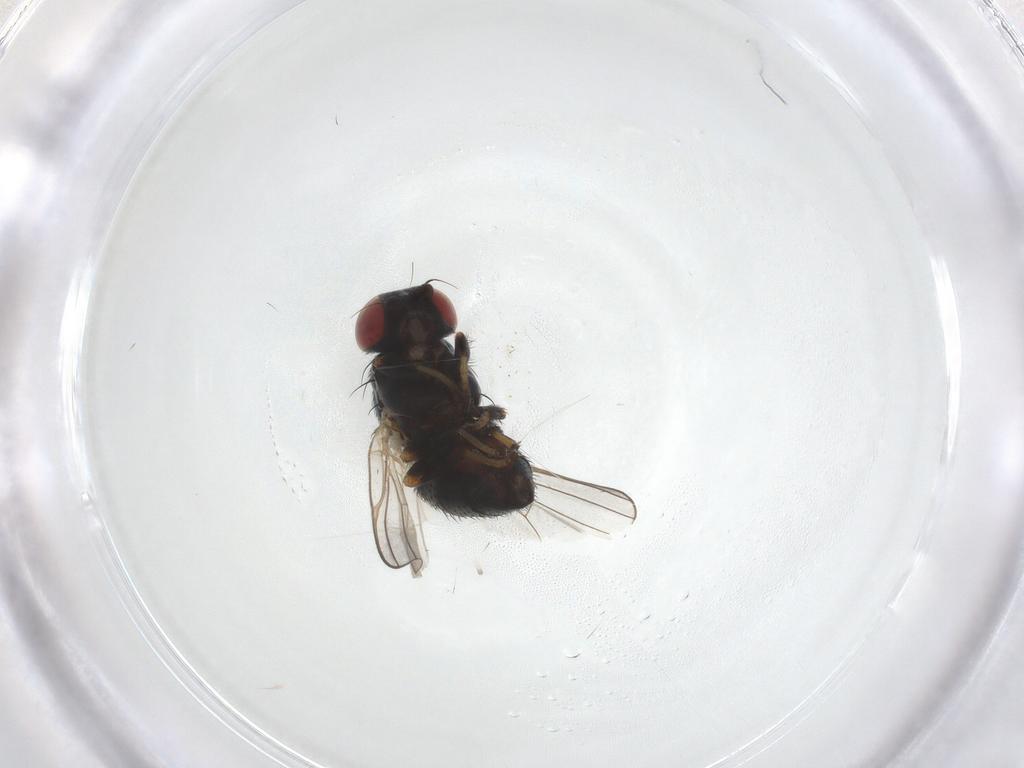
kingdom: Animalia
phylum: Arthropoda
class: Insecta
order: Diptera
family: Chamaemyiidae
